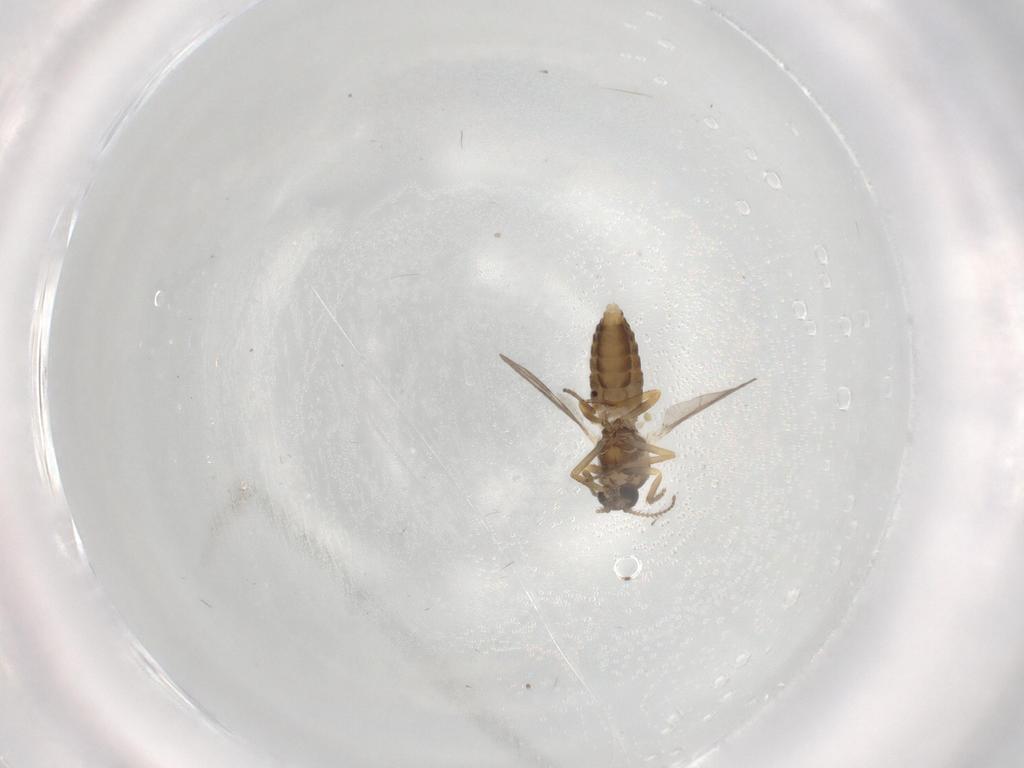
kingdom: Animalia
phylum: Arthropoda
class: Insecta
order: Diptera
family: Ceratopogonidae
